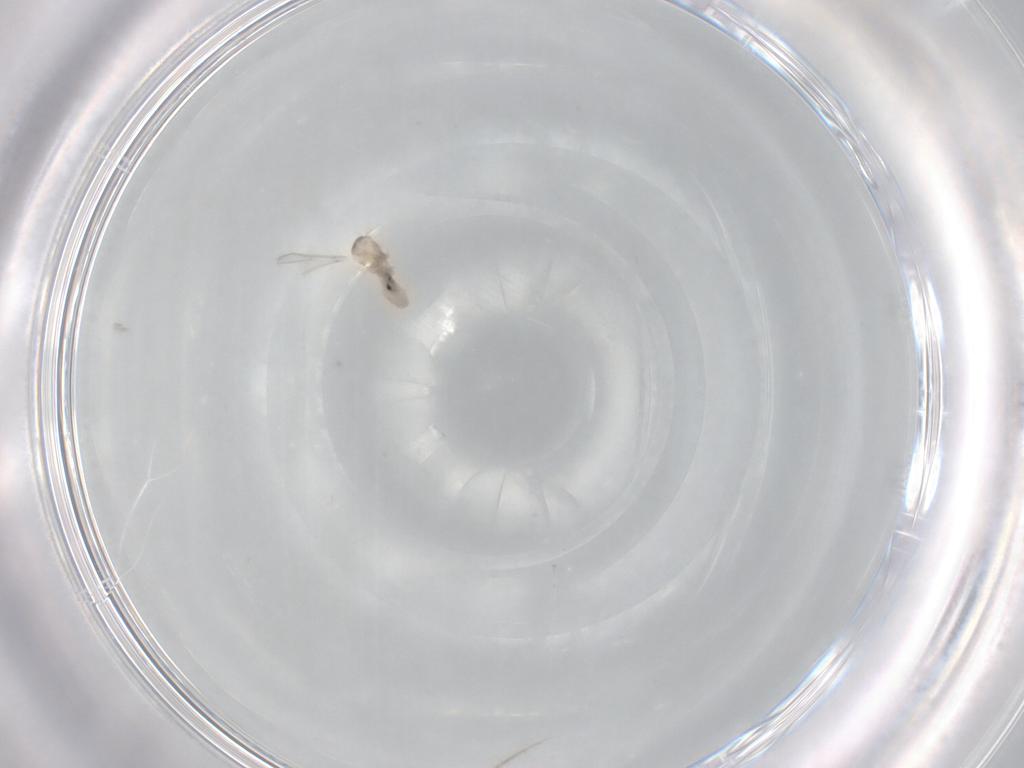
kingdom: Animalia
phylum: Arthropoda
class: Insecta
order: Diptera
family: Cecidomyiidae
